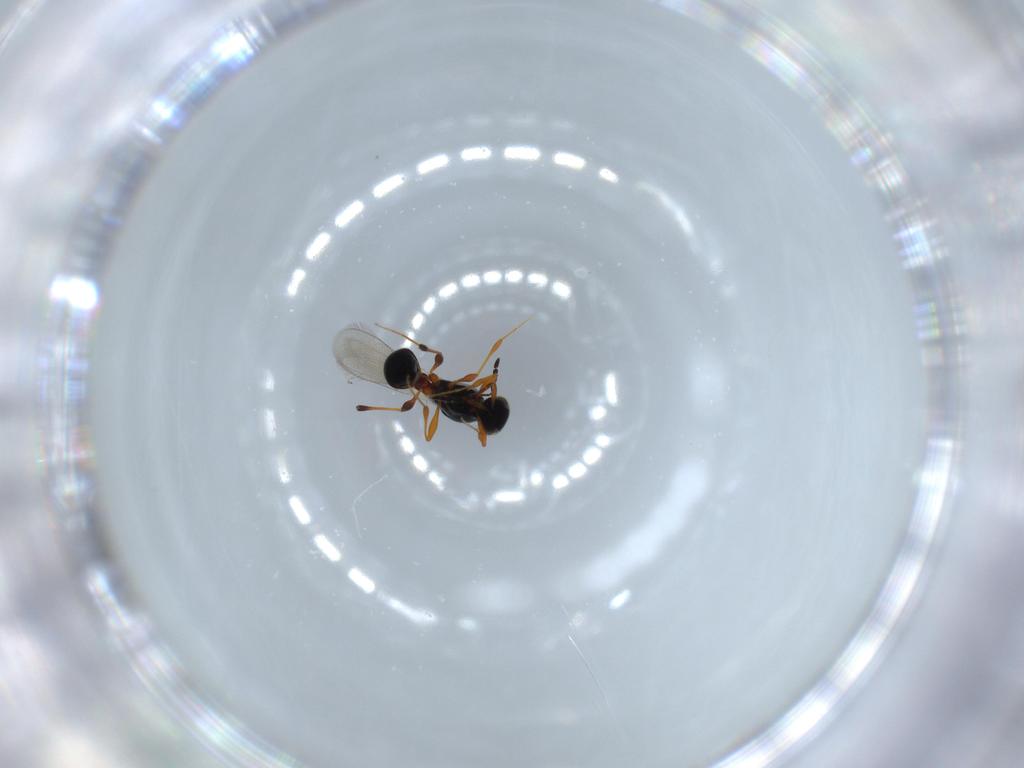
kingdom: Animalia
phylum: Arthropoda
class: Insecta
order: Hymenoptera
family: Platygastridae
